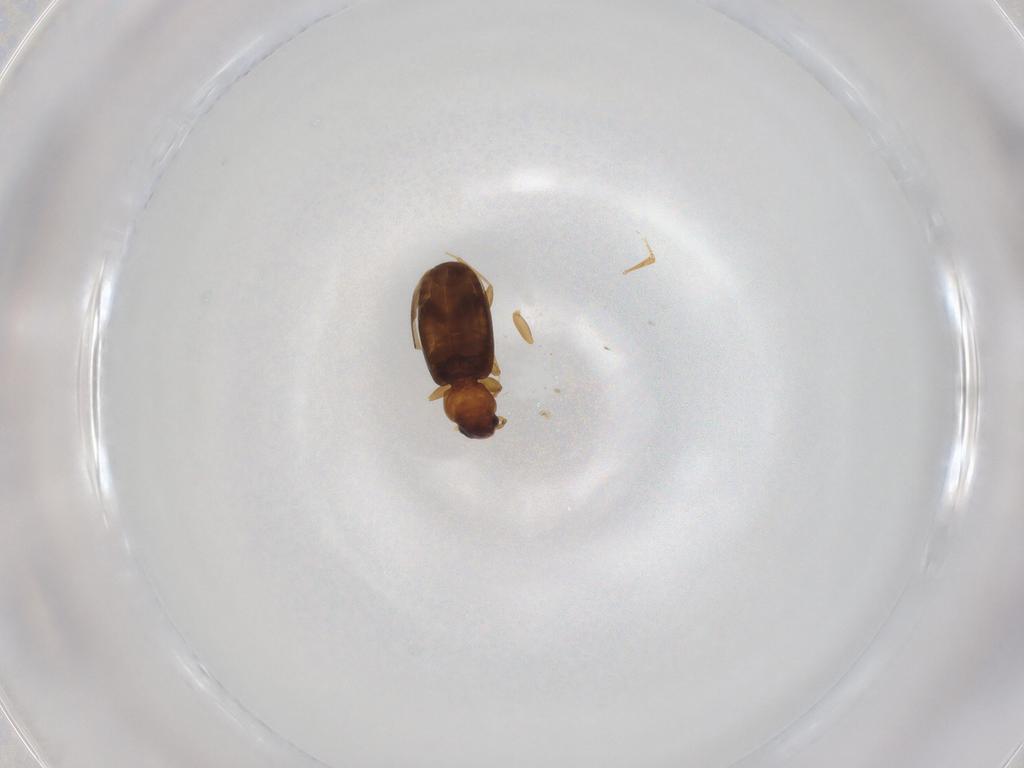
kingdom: Animalia
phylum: Arthropoda
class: Insecta
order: Coleoptera
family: Carabidae
